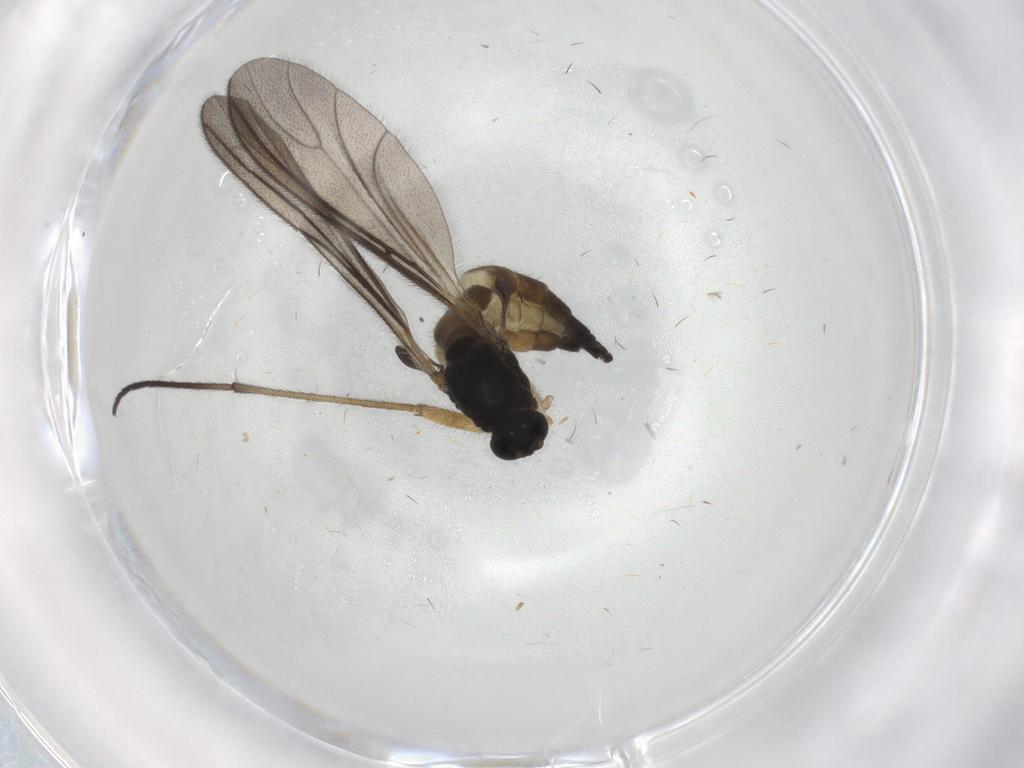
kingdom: Animalia
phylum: Arthropoda
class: Insecta
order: Diptera
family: Sciaridae
